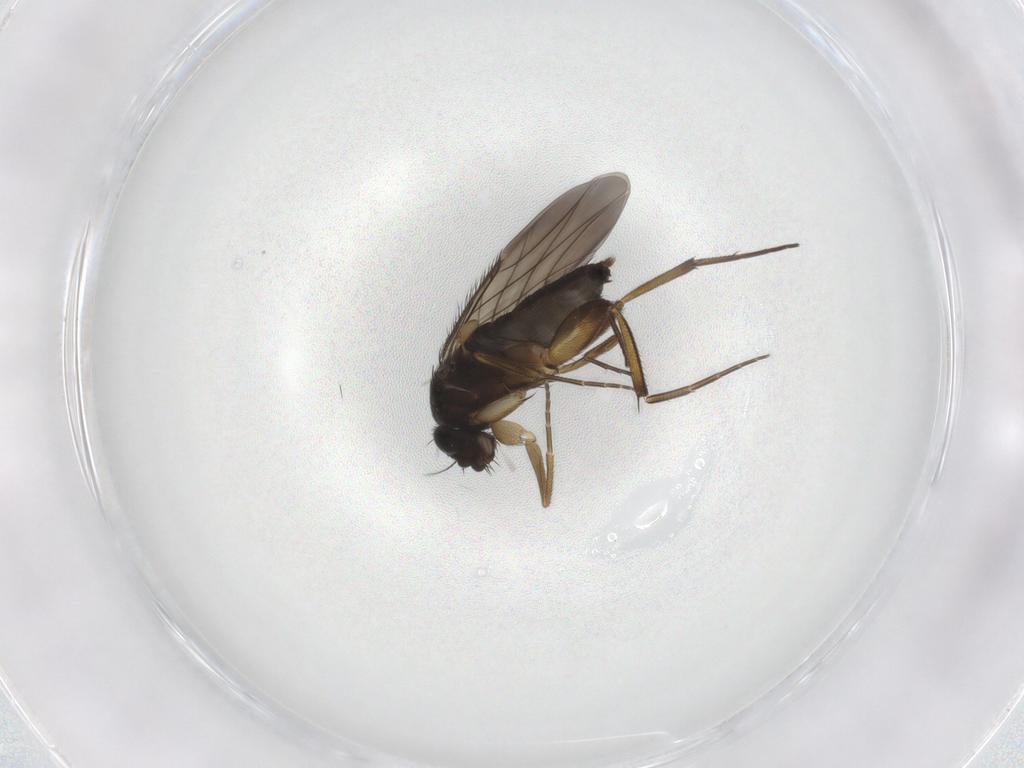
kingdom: Animalia
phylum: Arthropoda
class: Insecta
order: Diptera
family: Phoridae
